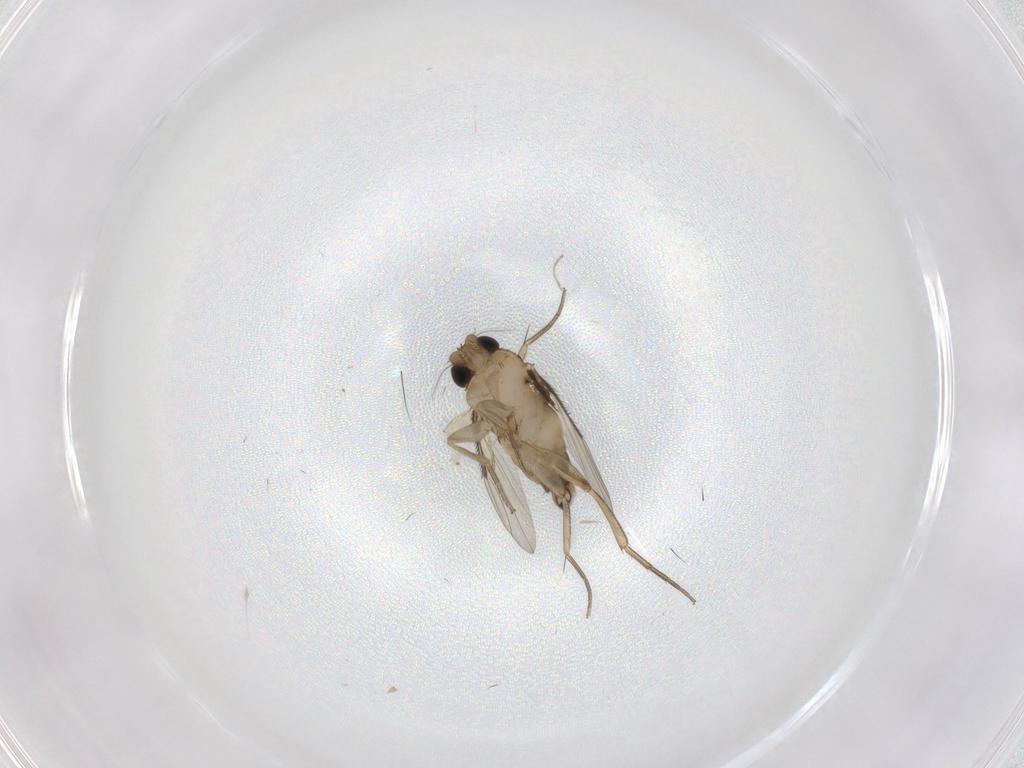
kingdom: Animalia
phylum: Arthropoda
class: Insecta
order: Diptera
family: Phoridae
